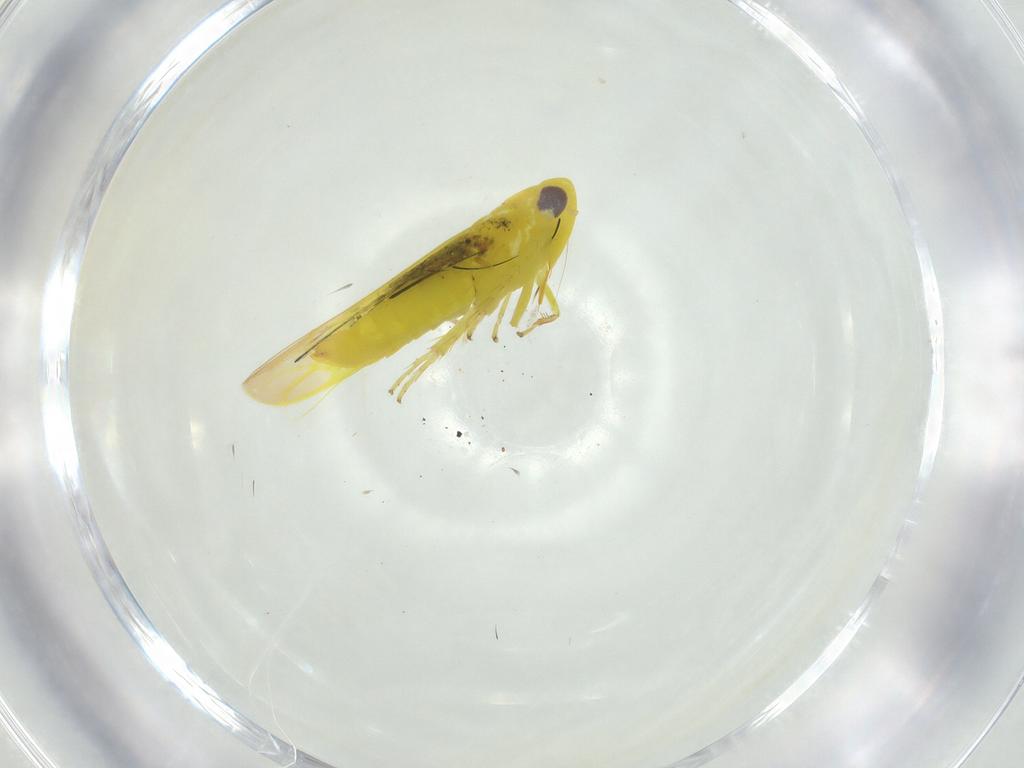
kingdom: Animalia
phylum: Arthropoda
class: Insecta
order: Hemiptera
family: Cicadellidae
